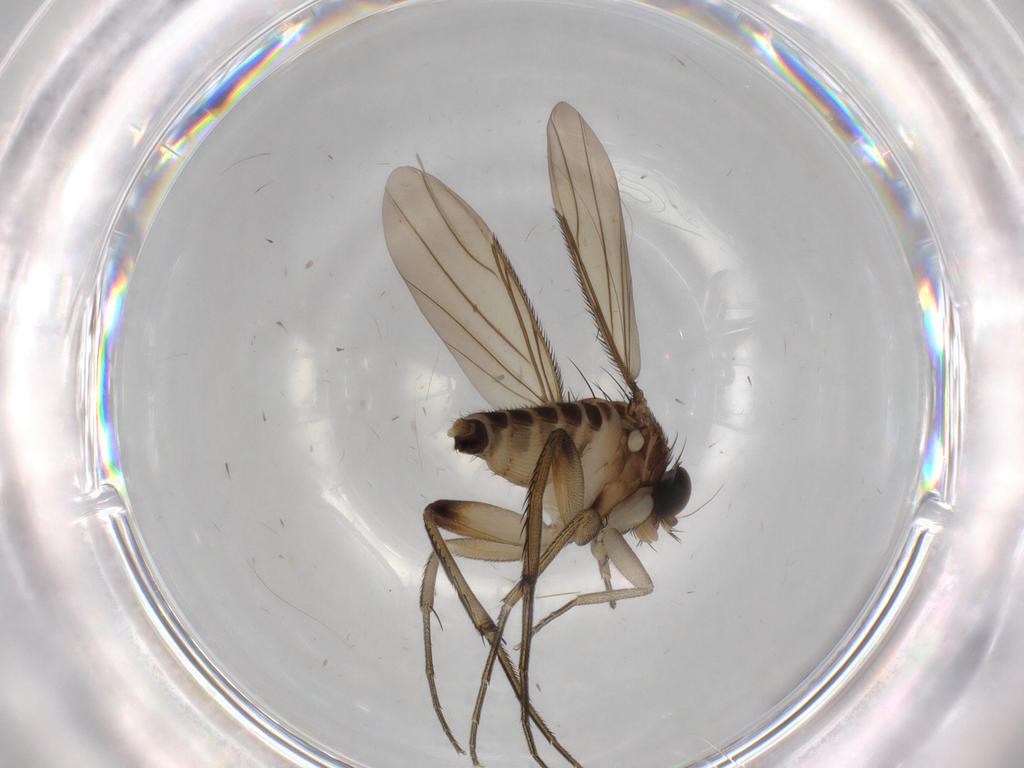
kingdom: Animalia
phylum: Arthropoda
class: Insecta
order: Diptera
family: Phoridae
